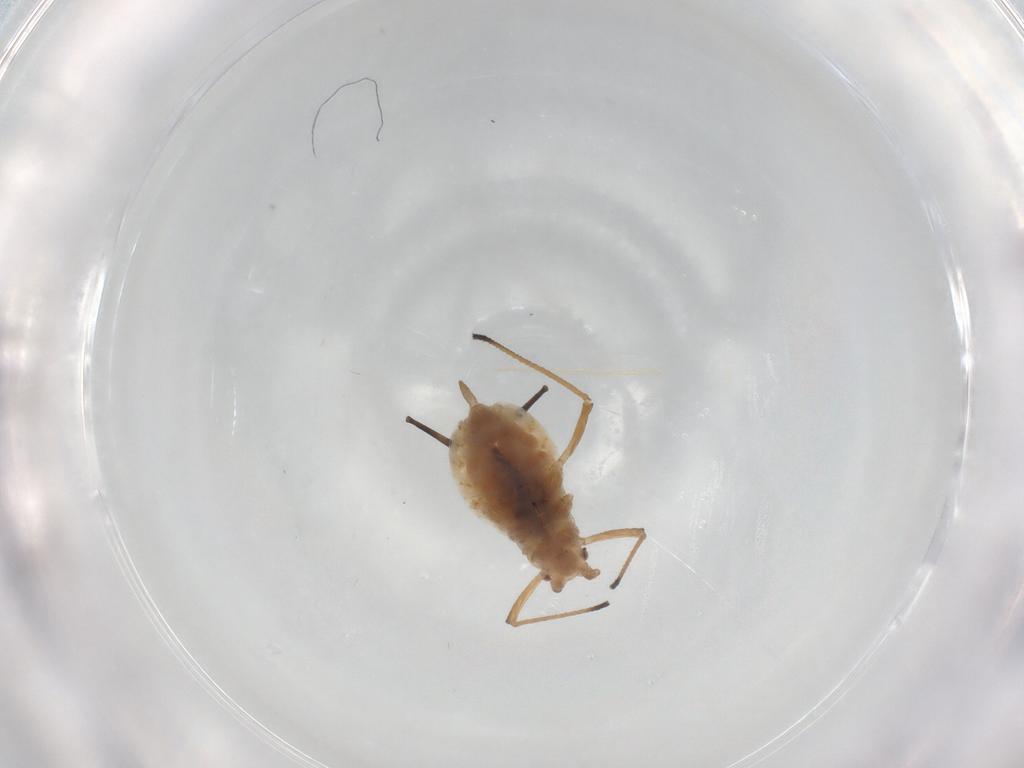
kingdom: Animalia
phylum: Arthropoda
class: Insecta
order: Hemiptera
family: Aphididae
